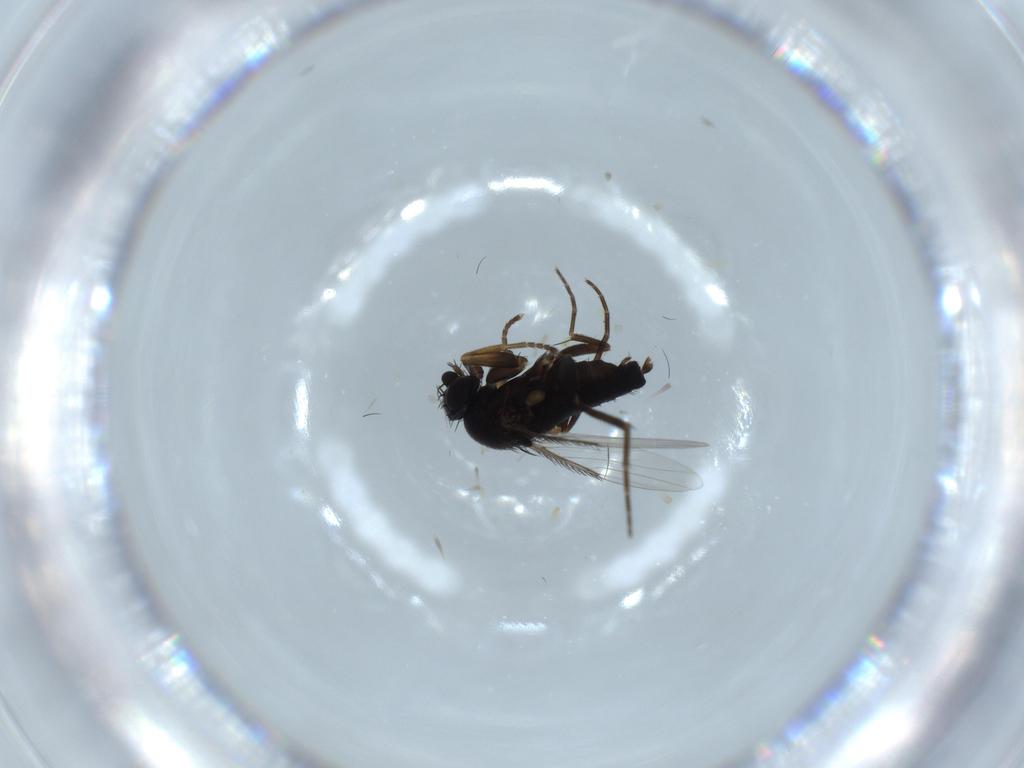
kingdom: Animalia
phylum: Arthropoda
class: Insecta
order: Diptera
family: Phoridae
